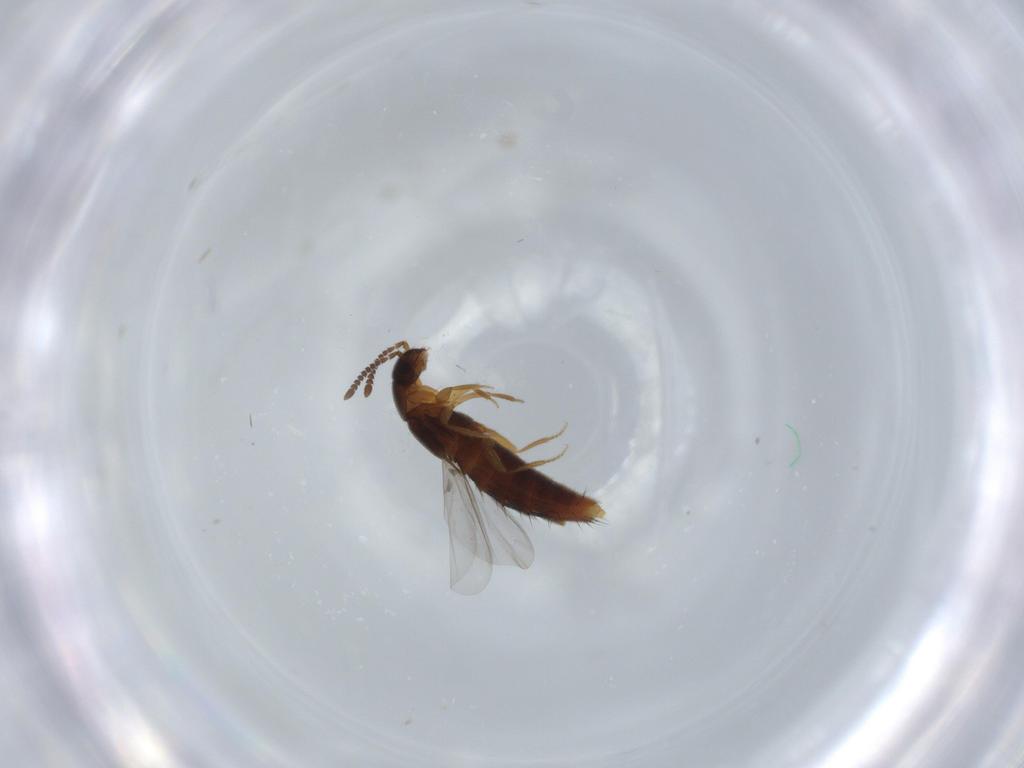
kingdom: Animalia
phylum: Arthropoda
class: Insecta
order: Coleoptera
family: Staphylinidae
